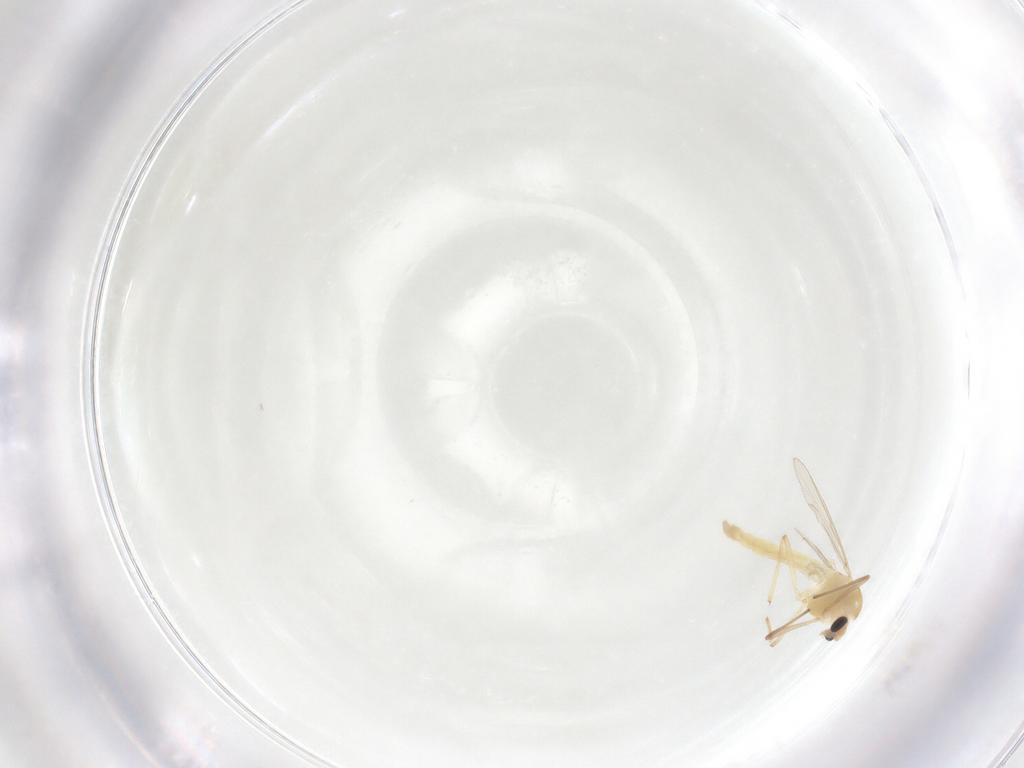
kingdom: Animalia
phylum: Arthropoda
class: Insecta
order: Diptera
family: Chironomidae
